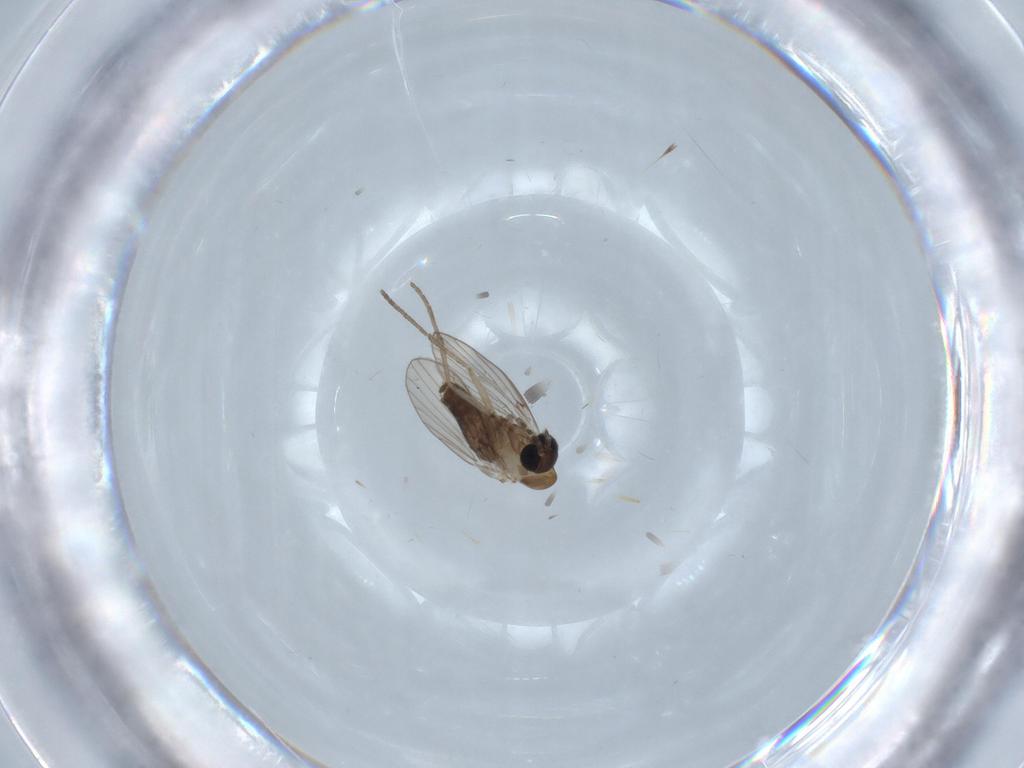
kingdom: Animalia
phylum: Arthropoda
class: Insecta
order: Diptera
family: Psychodidae
